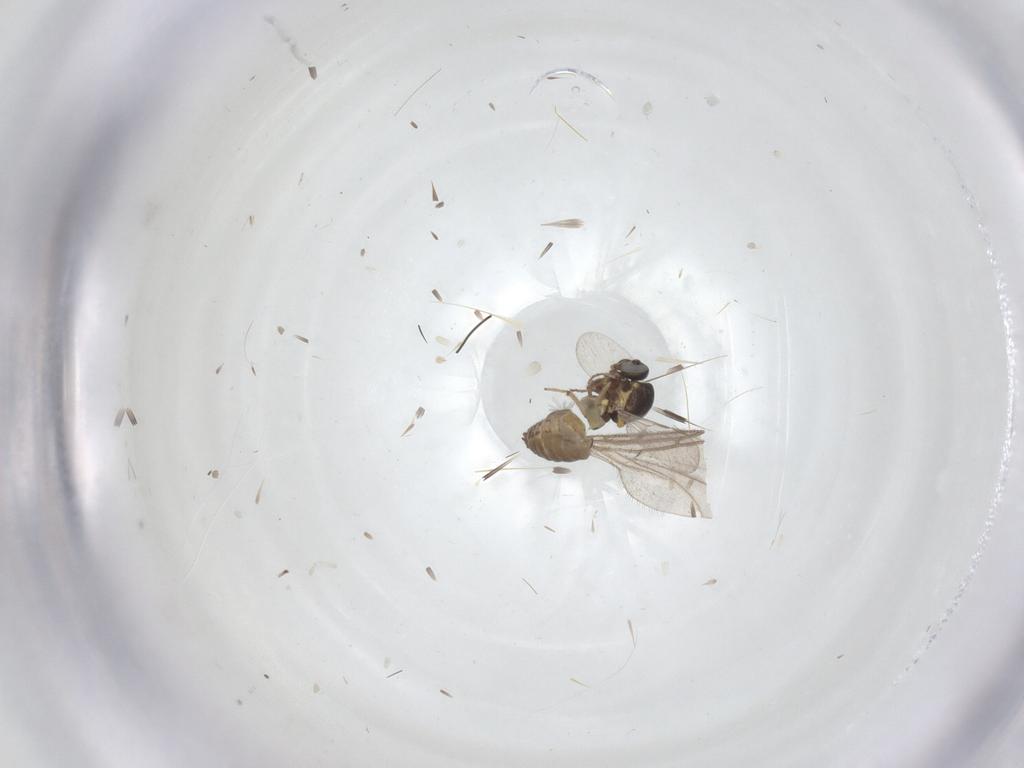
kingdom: Animalia
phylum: Arthropoda
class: Insecta
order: Diptera
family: Ceratopogonidae
